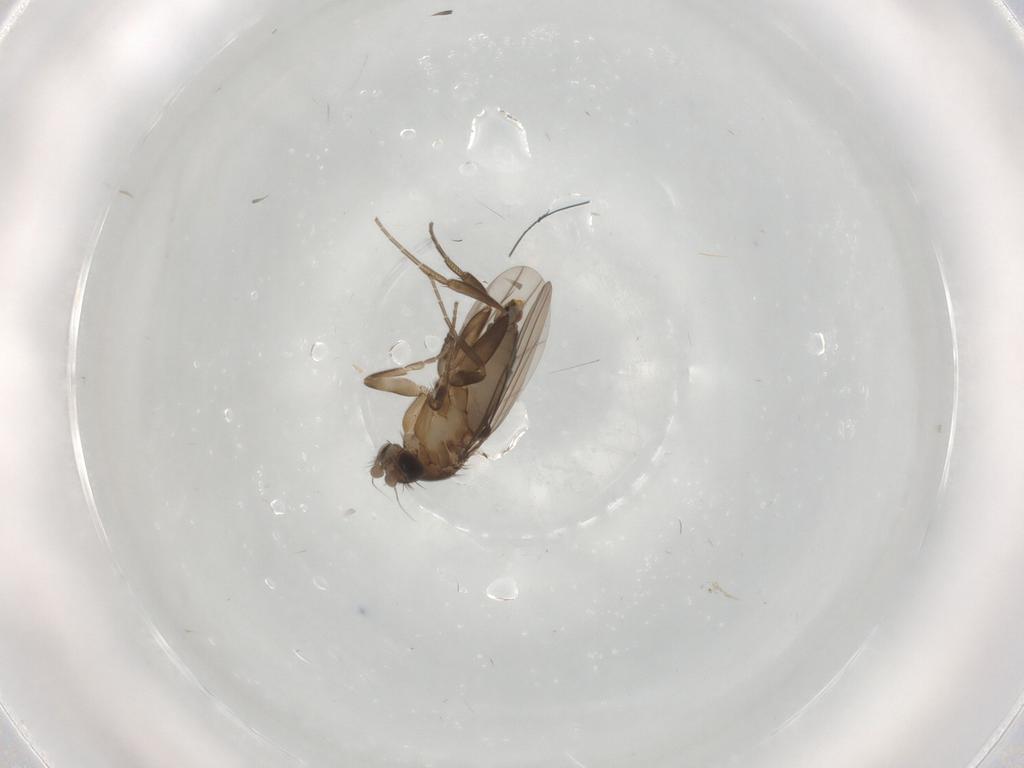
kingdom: Animalia
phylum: Arthropoda
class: Insecta
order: Diptera
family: Phoridae
